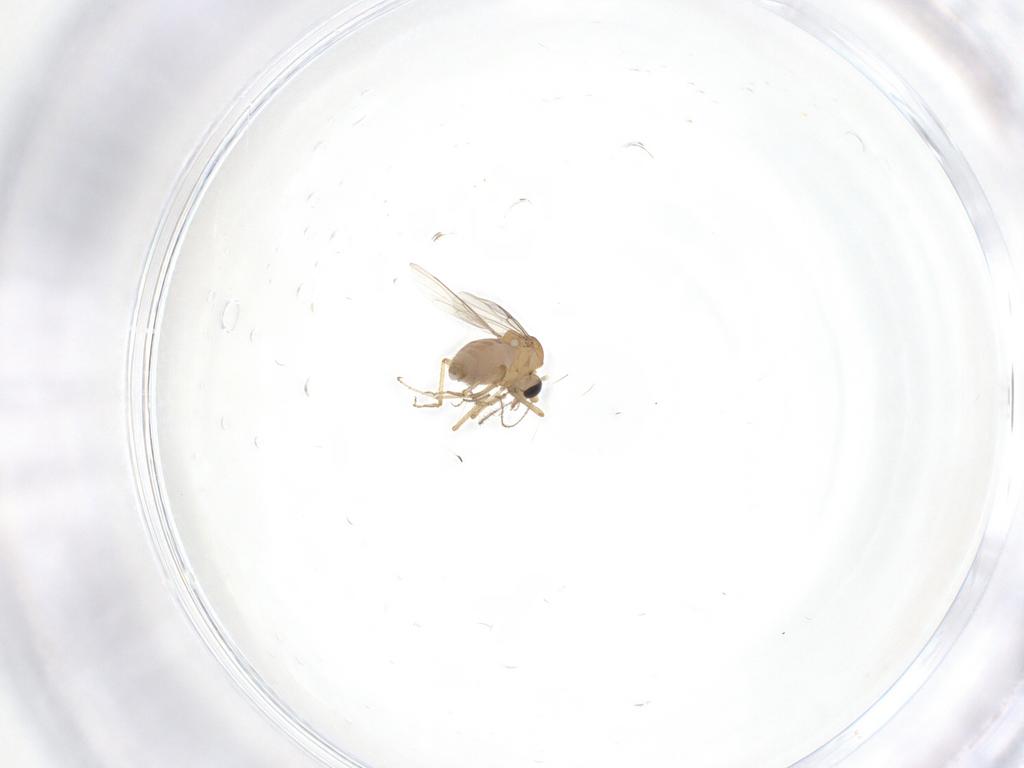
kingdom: Animalia
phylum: Arthropoda
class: Insecta
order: Diptera
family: Ceratopogonidae
